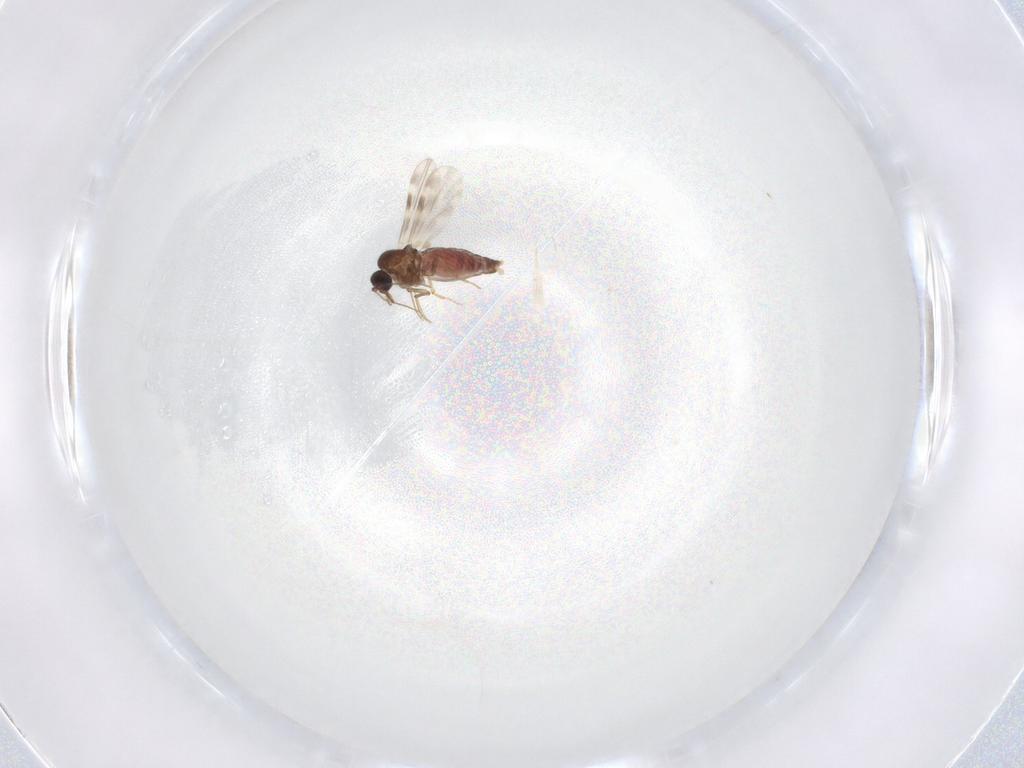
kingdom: Animalia
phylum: Arthropoda
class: Insecta
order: Diptera
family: Ceratopogonidae
